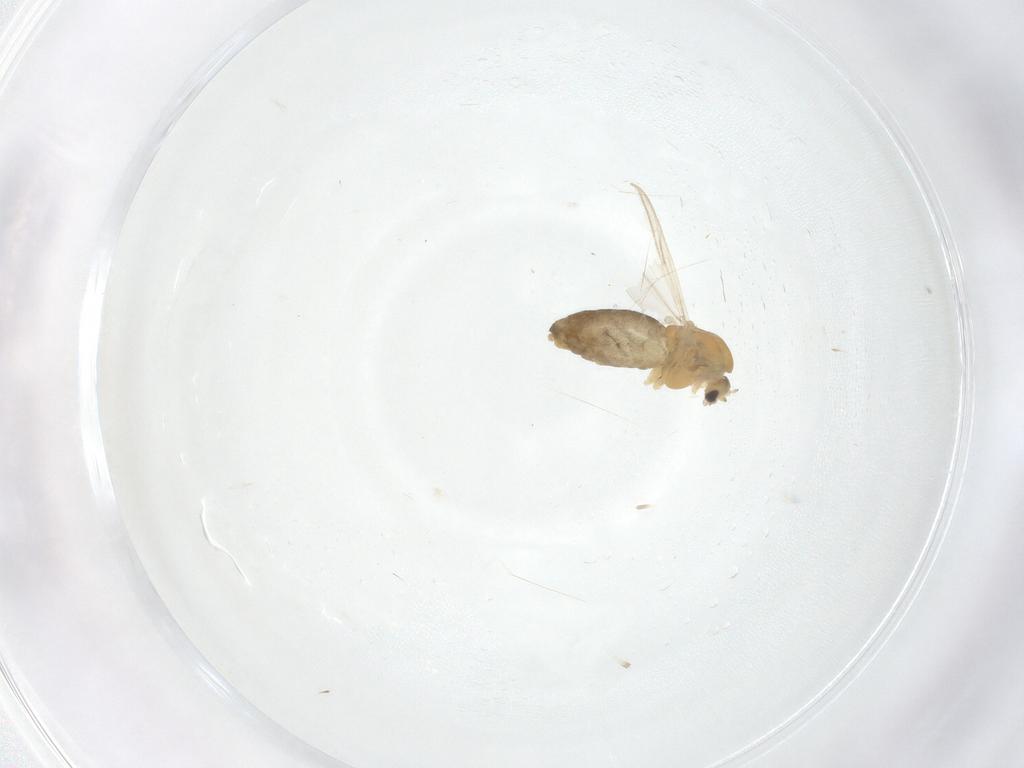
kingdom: Animalia
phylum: Arthropoda
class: Insecta
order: Diptera
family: Chironomidae
